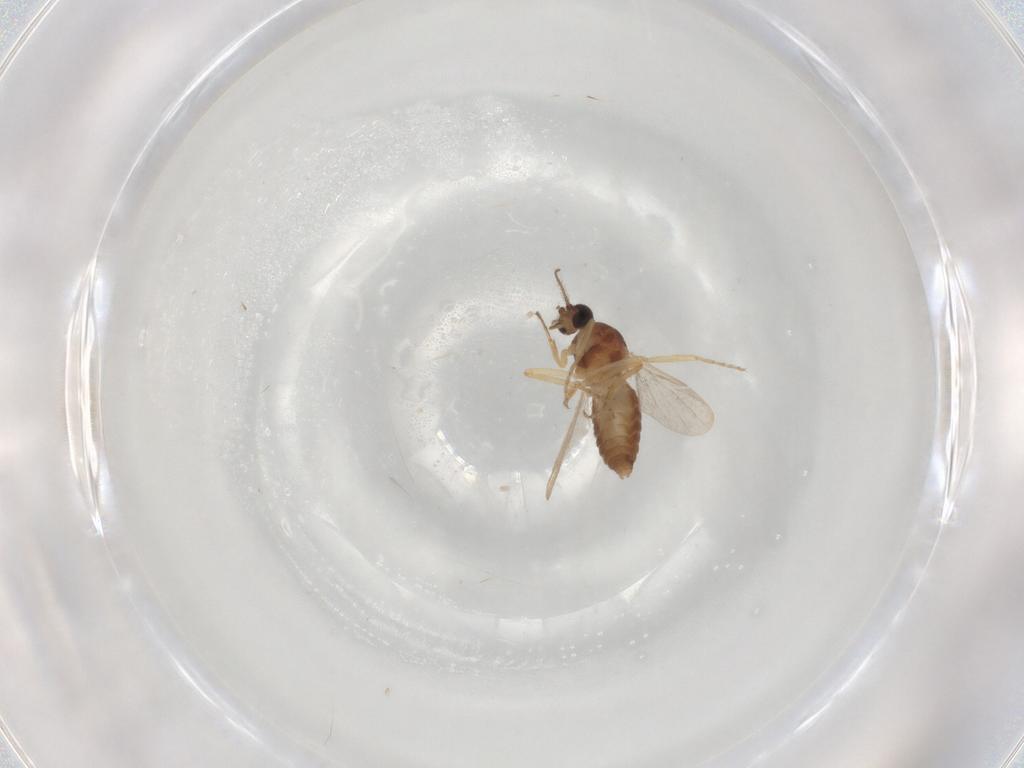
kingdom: Animalia
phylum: Arthropoda
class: Insecta
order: Diptera
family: Ceratopogonidae
